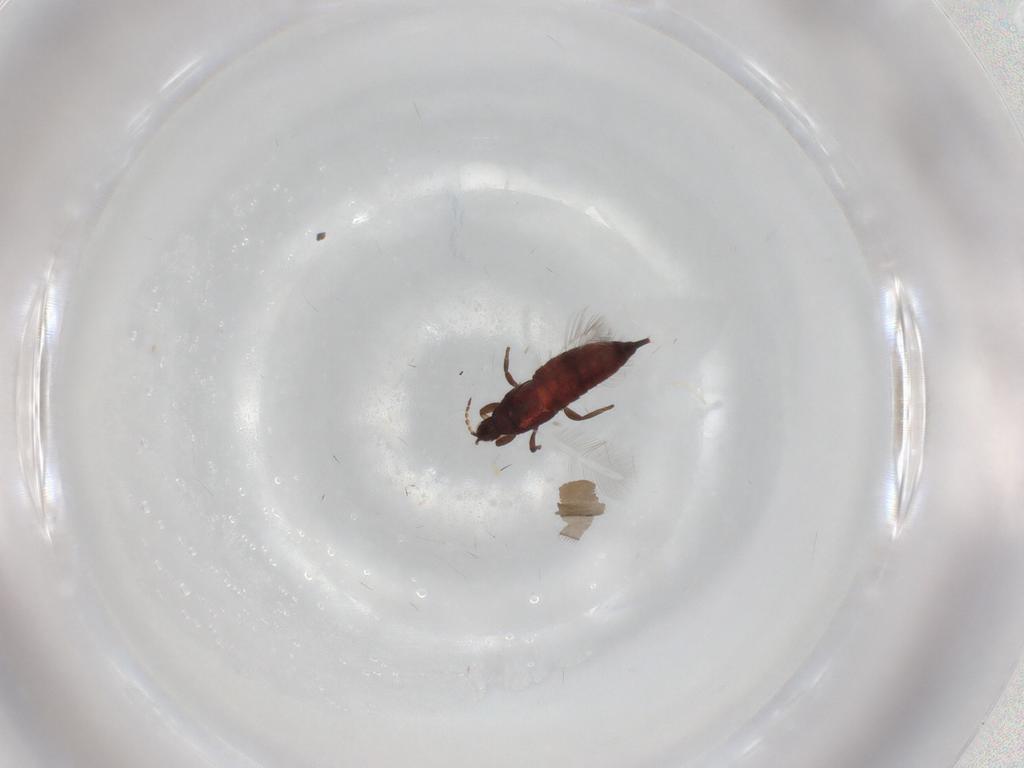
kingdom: Animalia
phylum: Arthropoda
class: Insecta
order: Thysanoptera
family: Phlaeothripidae
